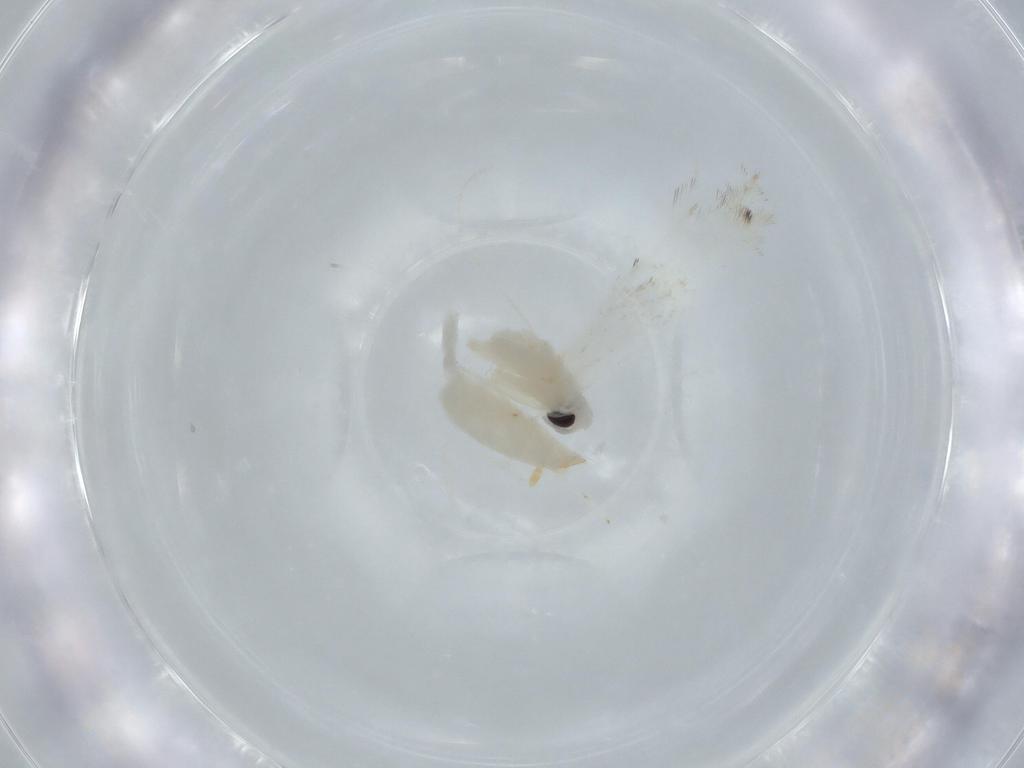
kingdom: Animalia
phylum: Arthropoda
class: Insecta
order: Lepidoptera
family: Gracillariidae
